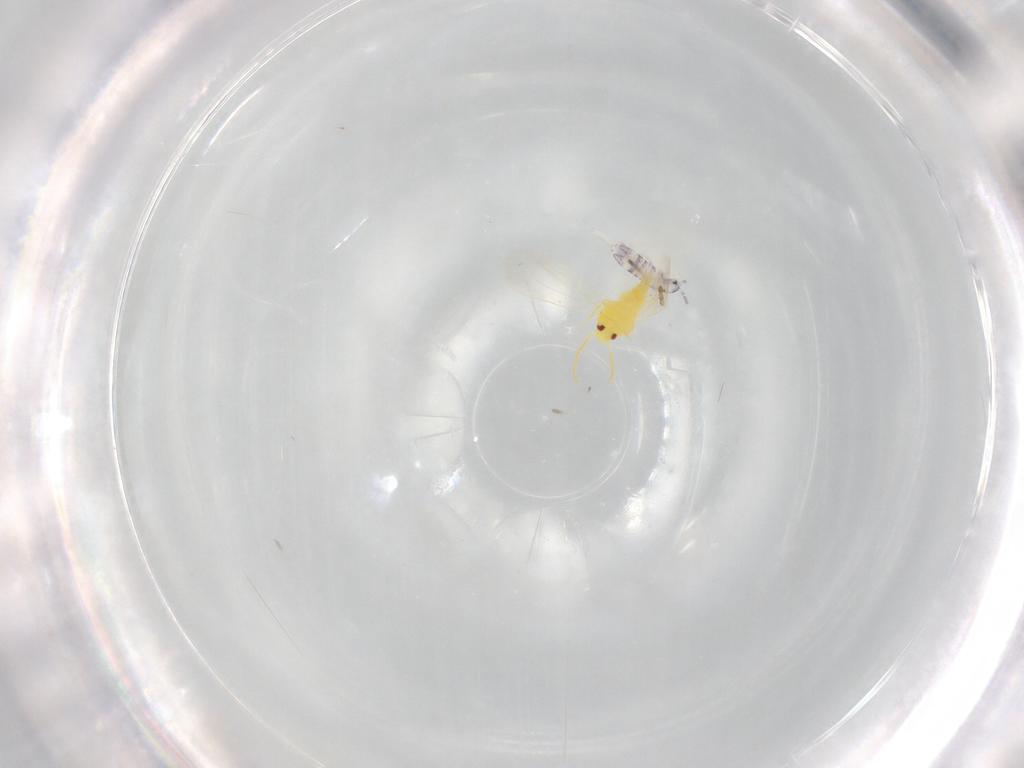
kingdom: Animalia
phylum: Arthropoda
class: Collembola
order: Entomobryomorpha
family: Entomobryidae
